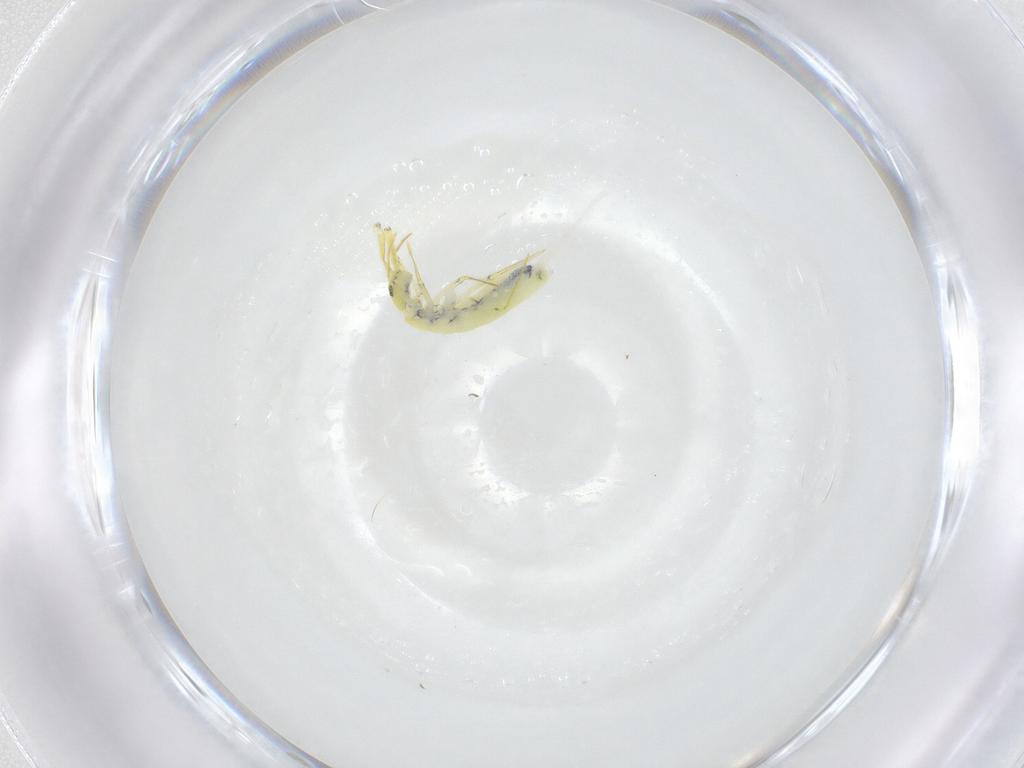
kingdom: Animalia
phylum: Arthropoda
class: Collembola
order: Entomobryomorpha
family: Entomobryidae
